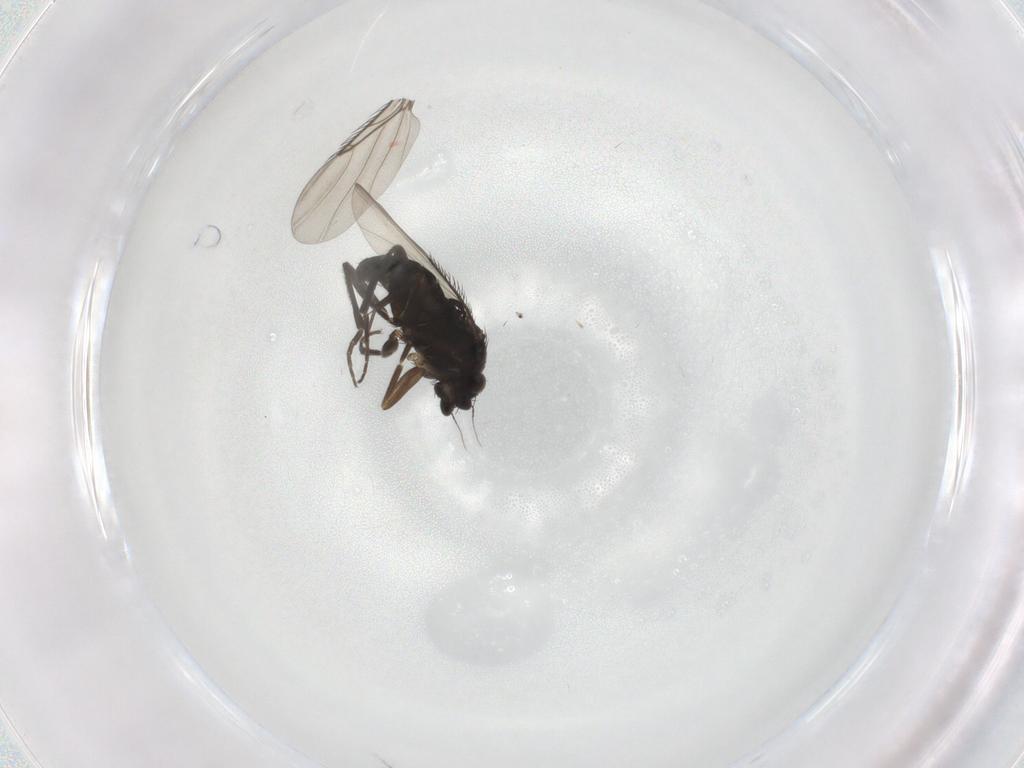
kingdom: Animalia
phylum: Arthropoda
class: Insecta
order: Diptera
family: Phoridae
